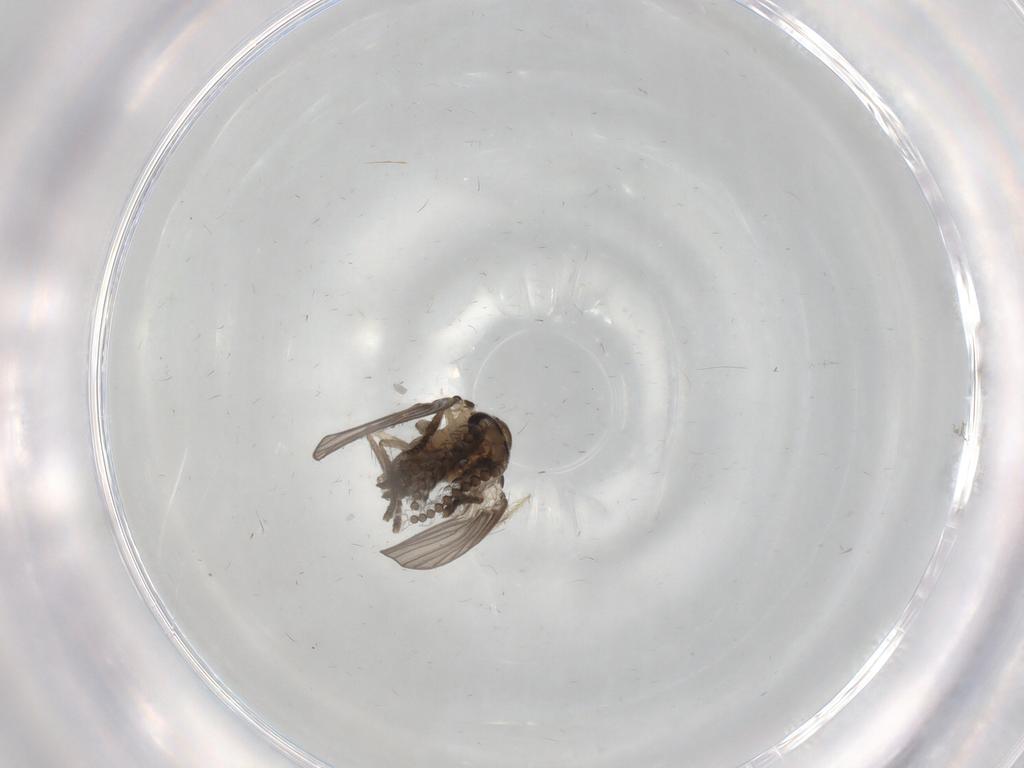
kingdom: Animalia
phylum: Arthropoda
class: Insecta
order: Diptera
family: Psychodidae
